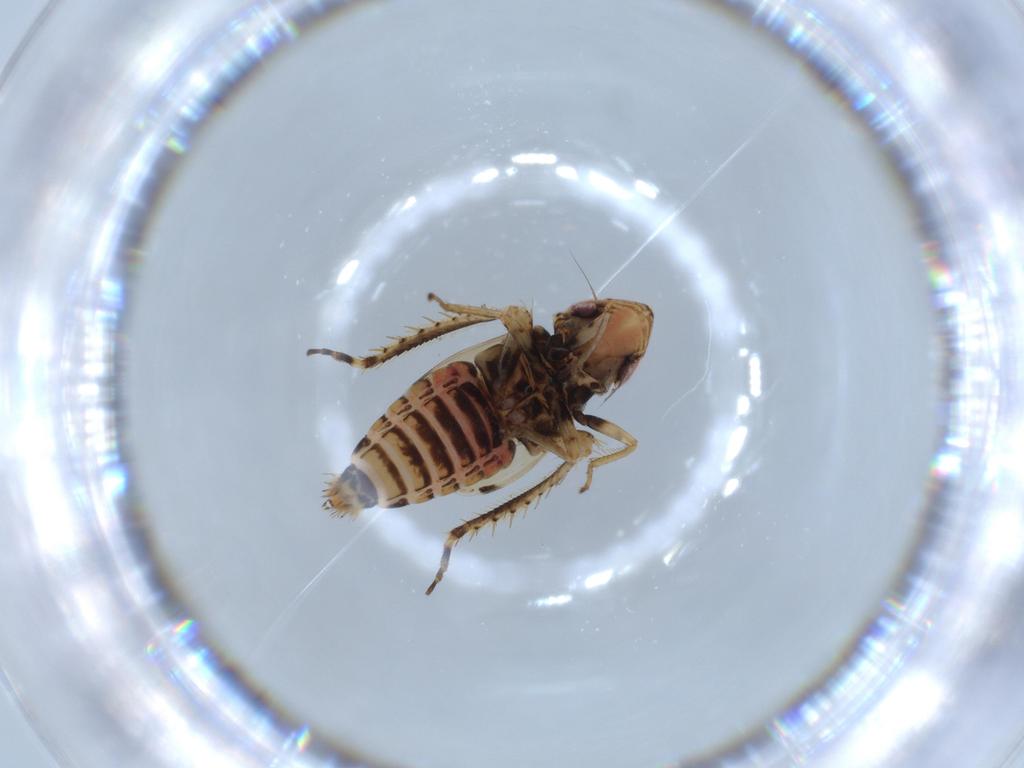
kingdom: Animalia
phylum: Arthropoda
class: Insecta
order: Hemiptera
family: Cicadellidae
